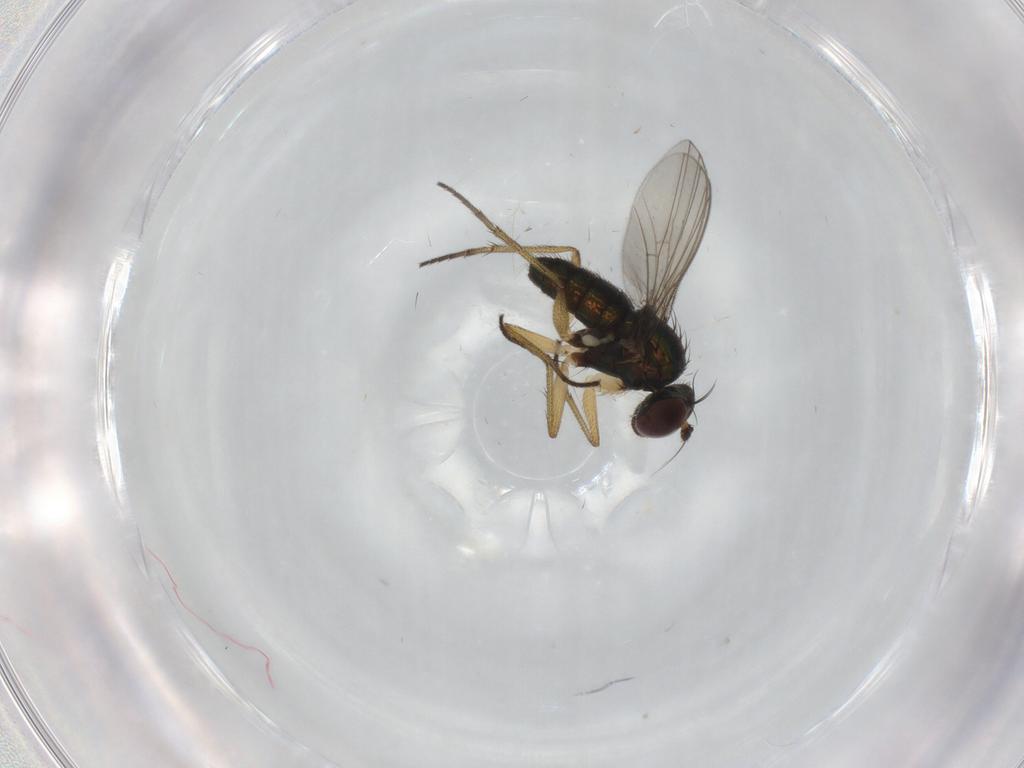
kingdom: Animalia
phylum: Arthropoda
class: Insecta
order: Diptera
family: Dolichopodidae
